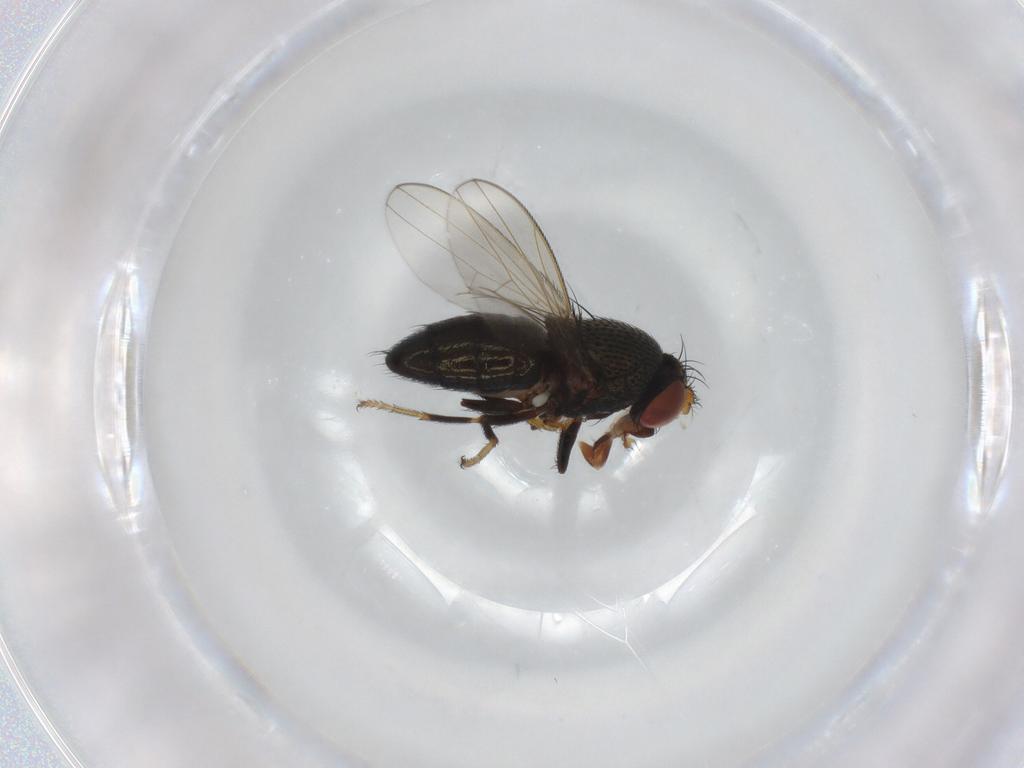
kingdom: Animalia
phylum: Arthropoda
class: Insecta
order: Diptera
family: Ephydridae
